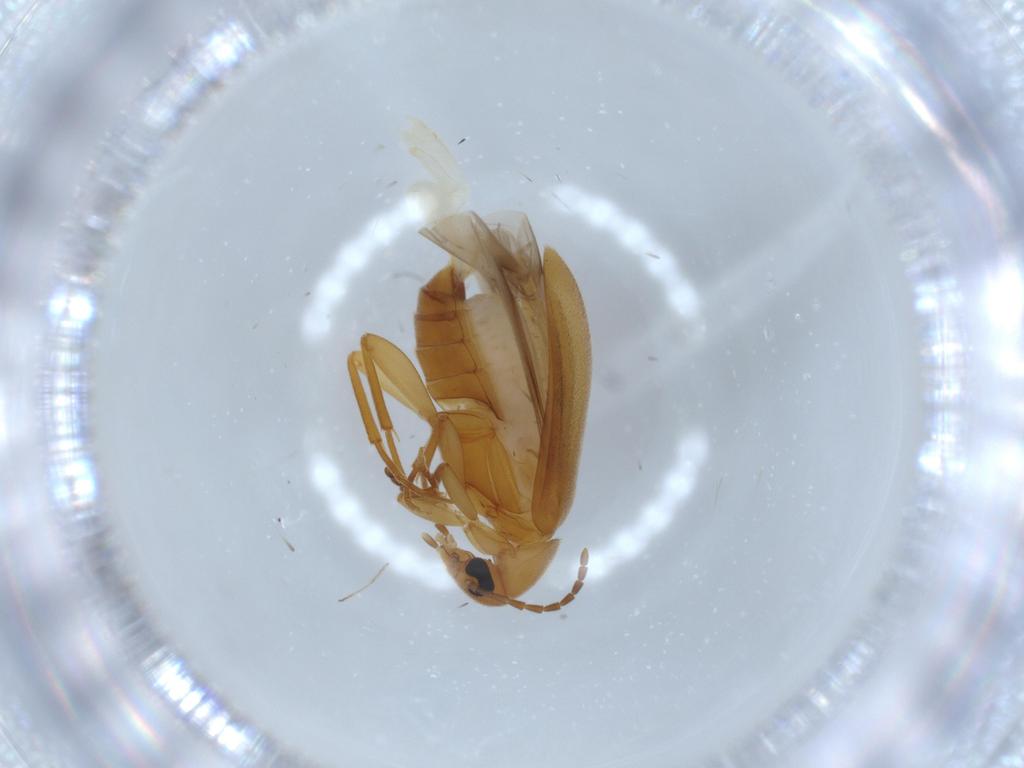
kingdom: Animalia
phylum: Arthropoda
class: Insecta
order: Coleoptera
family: Scraptiidae
